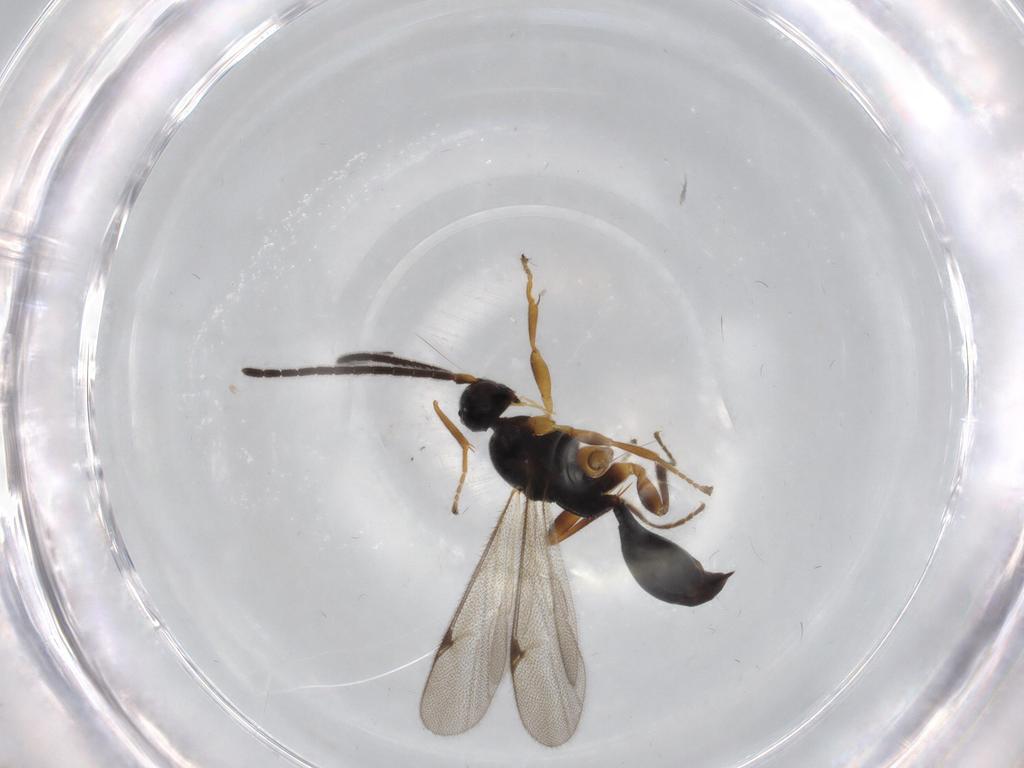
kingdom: Animalia
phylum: Arthropoda
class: Insecta
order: Hymenoptera
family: Proctotrupidae
